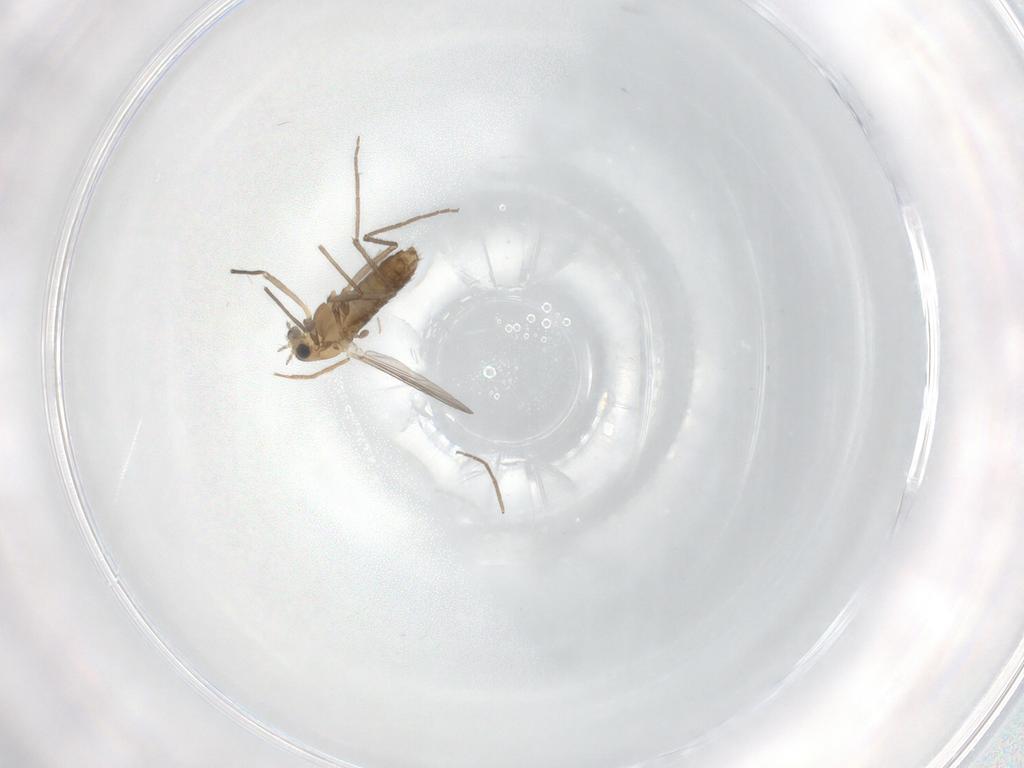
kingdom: Animalia
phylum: Arthropoda
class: Insecta
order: Diptera
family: Chironomidae
